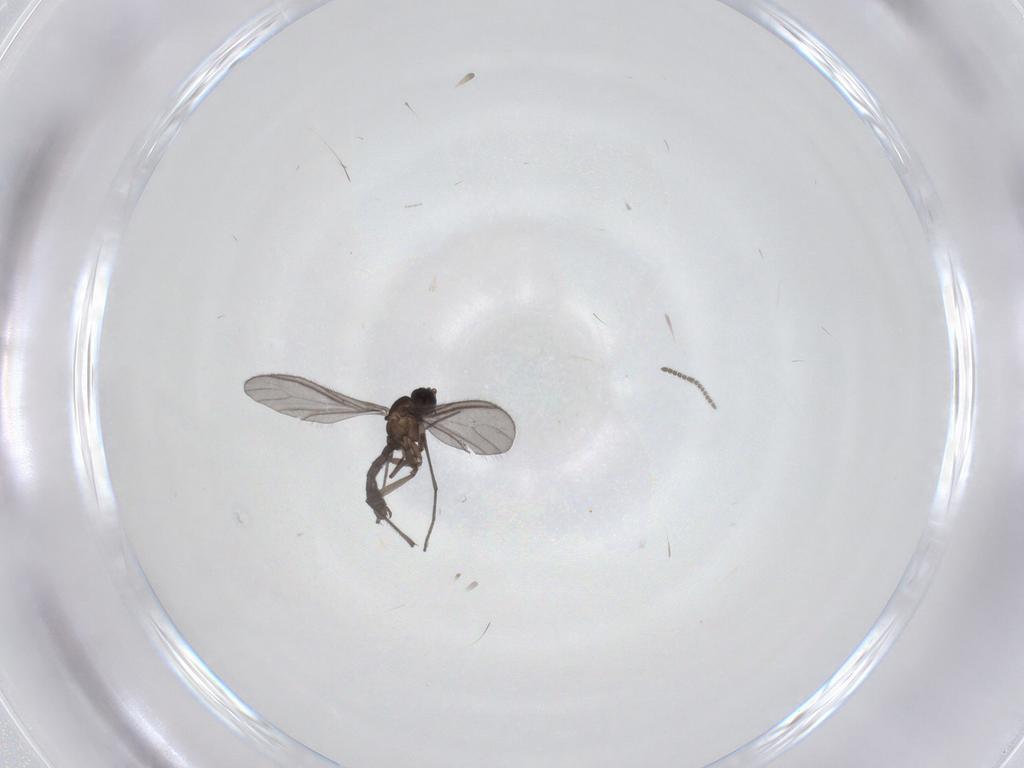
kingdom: Animalia
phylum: Arthropoda
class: Insecta
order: Diptera
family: Sciaridae
